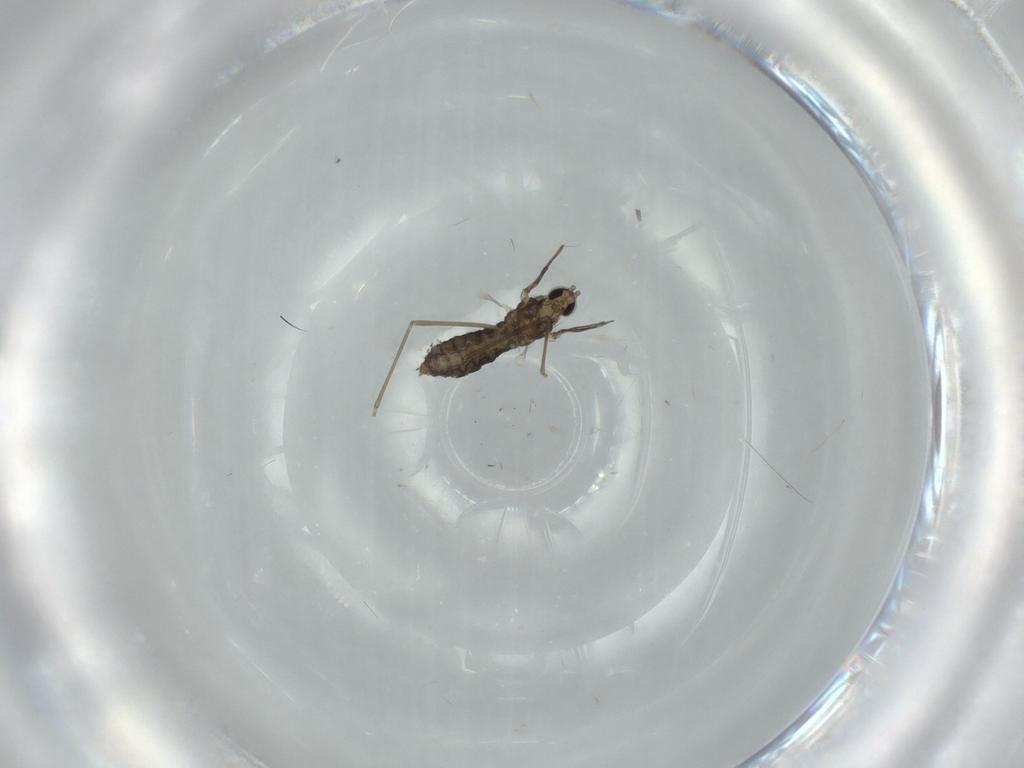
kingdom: Animalia
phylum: Arthropoda
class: Insecta
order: Diptera
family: Cecidomyiidae
